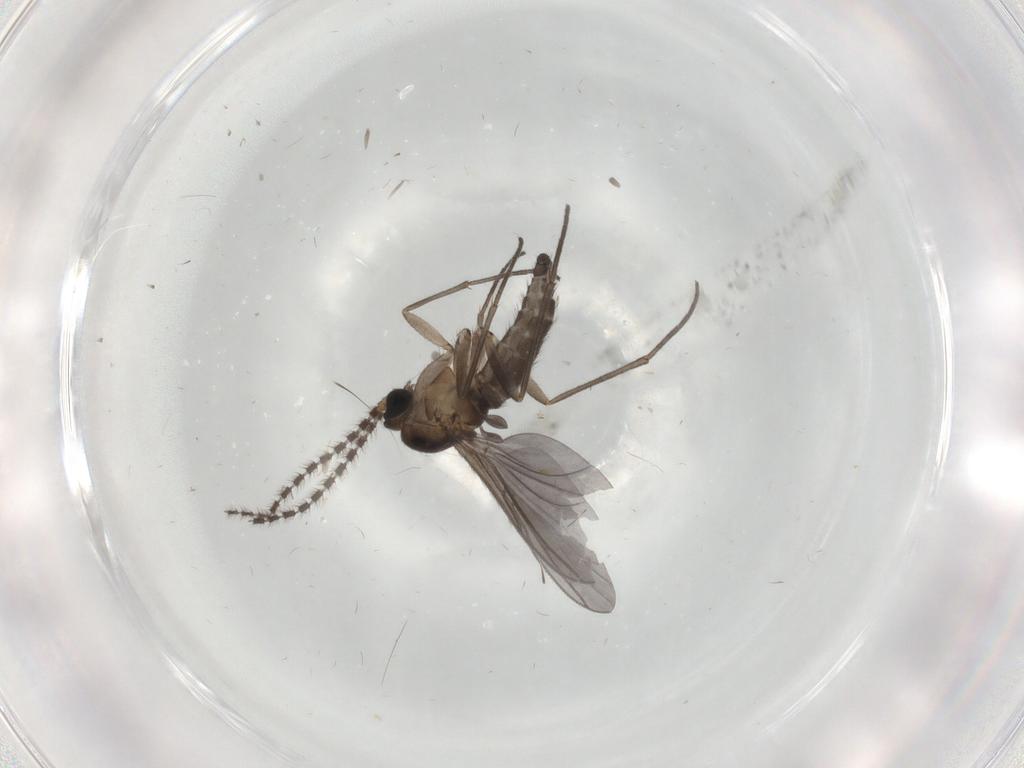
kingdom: Animalia
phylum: Arthropoda
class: Insecta
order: Diptera
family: Sciaridae
